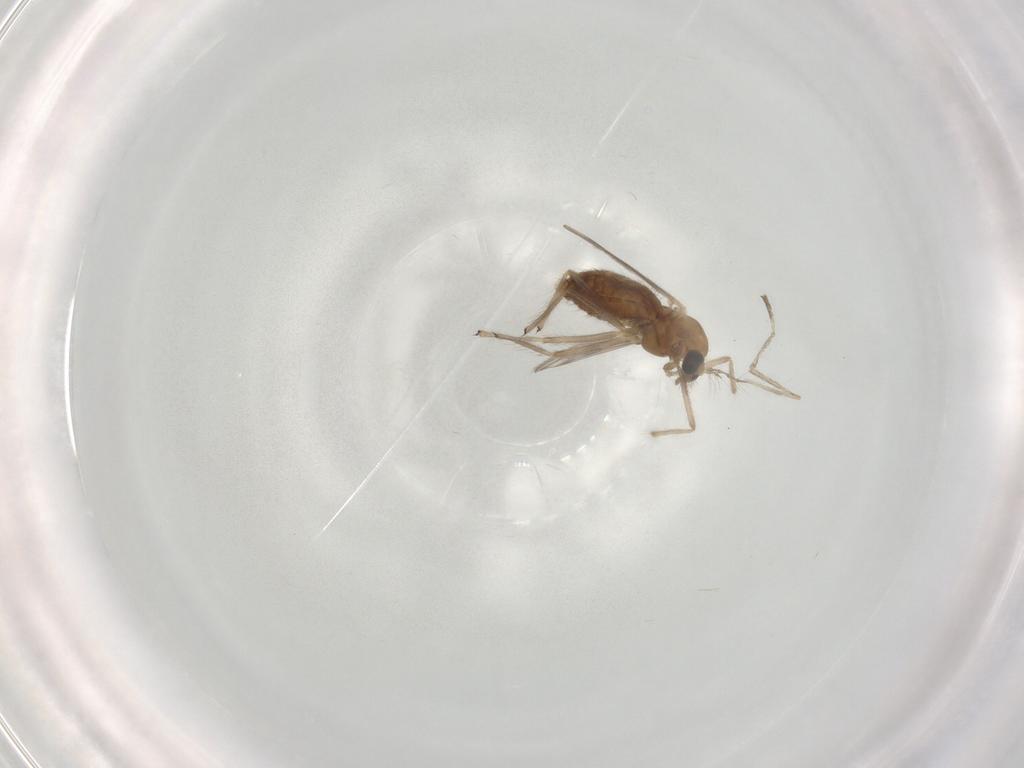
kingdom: Animalia
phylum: Arthropoda
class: Insecta
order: Diptera
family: Chironomidae
